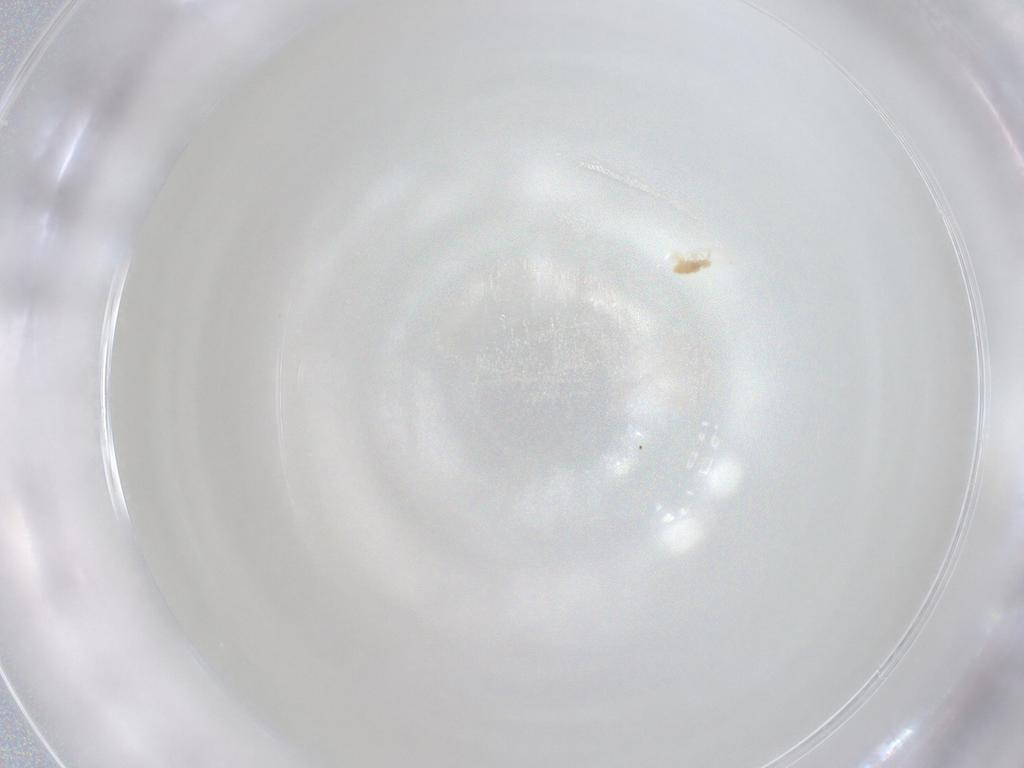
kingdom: Animalia
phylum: Arthropoda
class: Arachnida
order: Trombidiformes
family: Eupodidae
